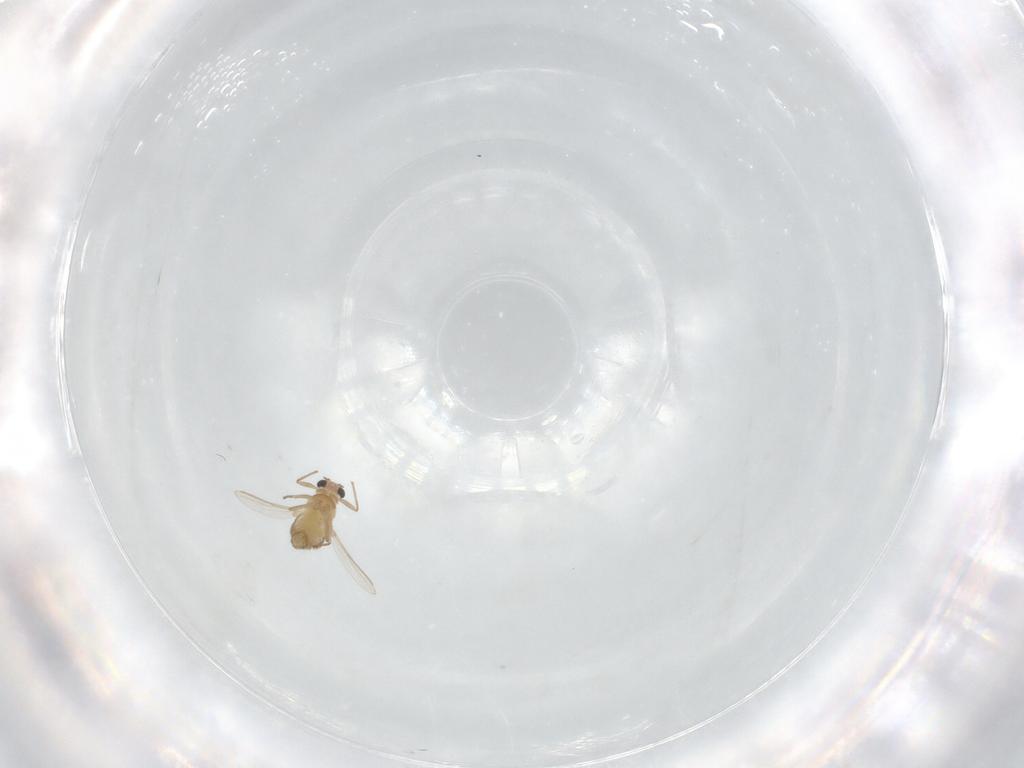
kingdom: Animalia
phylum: Arthropoda
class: Insecta
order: Diptera
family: Chironomidae
